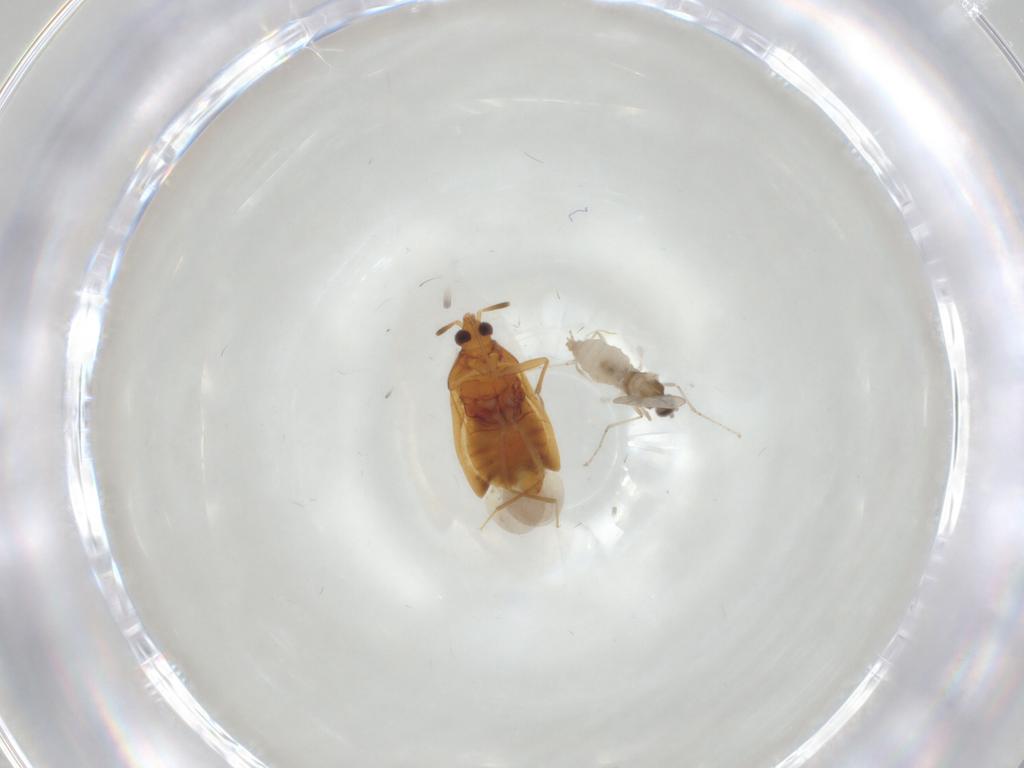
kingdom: Animalia
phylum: Arthropoda
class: Insecta
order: Diptera
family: Cecidomyiidae
